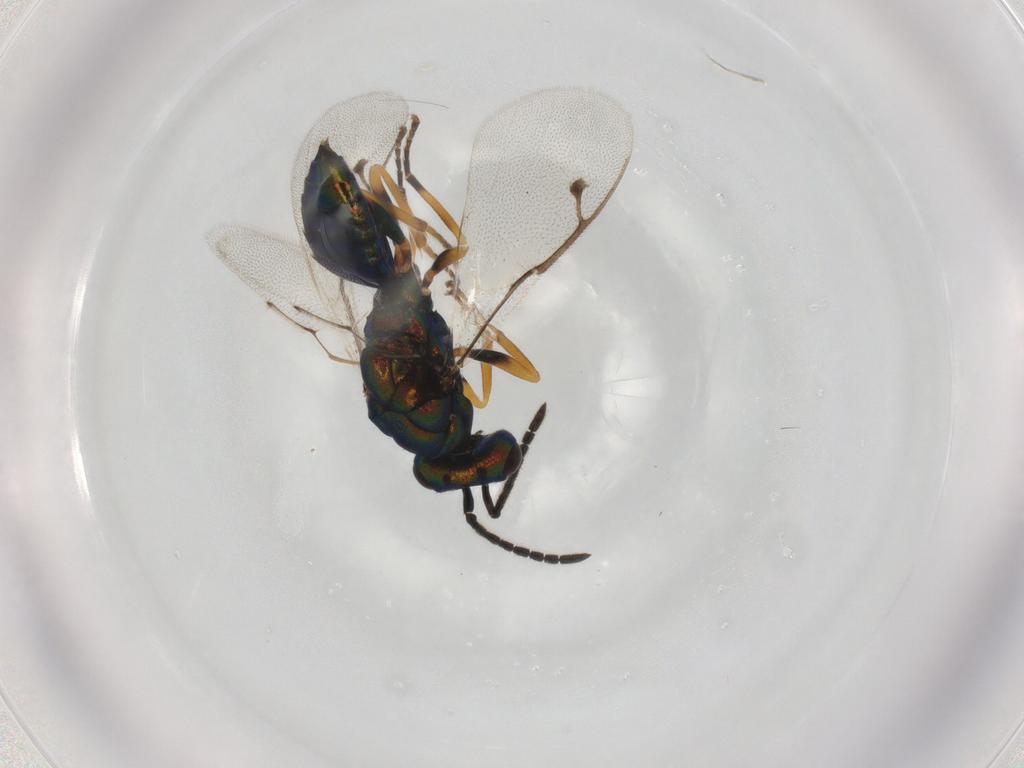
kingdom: Animalia
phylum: Arthropoda
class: Insecta
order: Hymenoptera
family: Pteromalidae
